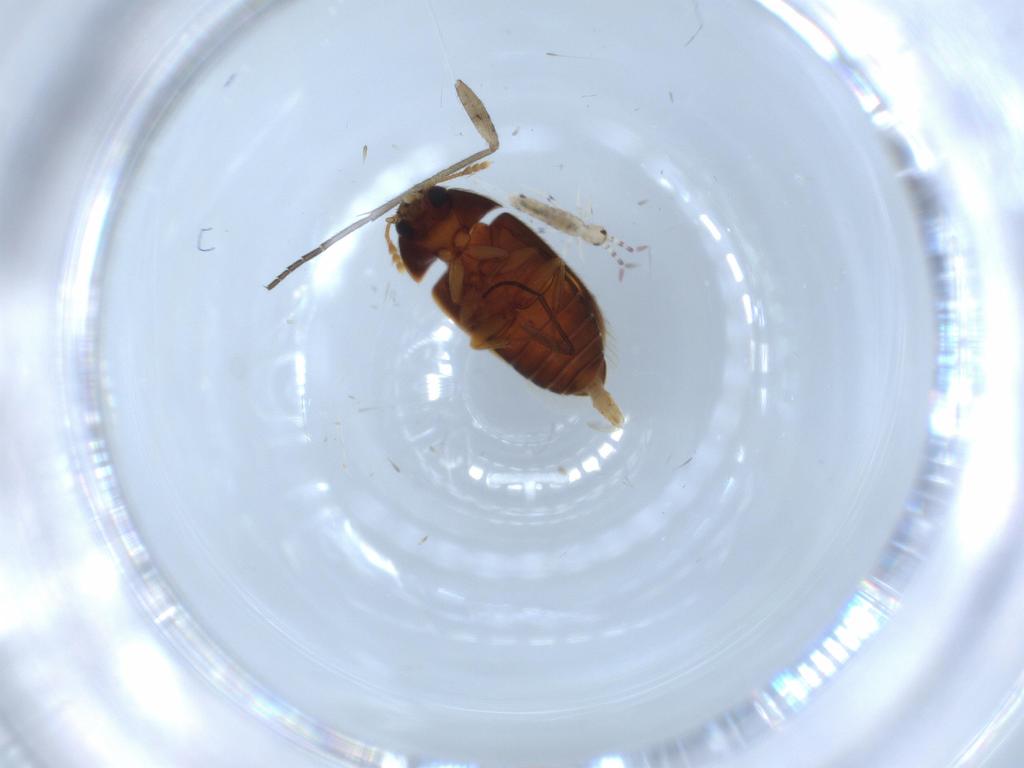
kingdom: Animalia
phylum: Arthropoda
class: Collembola
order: Entomobryomorpha
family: Entomobryidae
